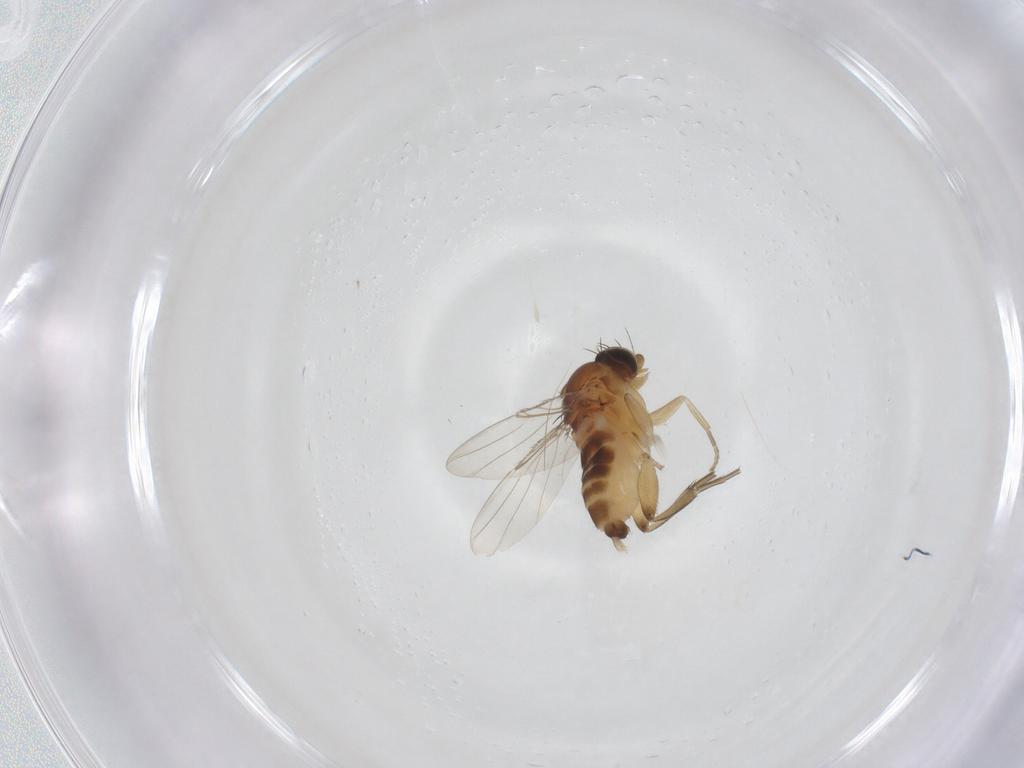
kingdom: Animalia
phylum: Arthropoda
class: Insecta
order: Diptera
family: Phoridae
